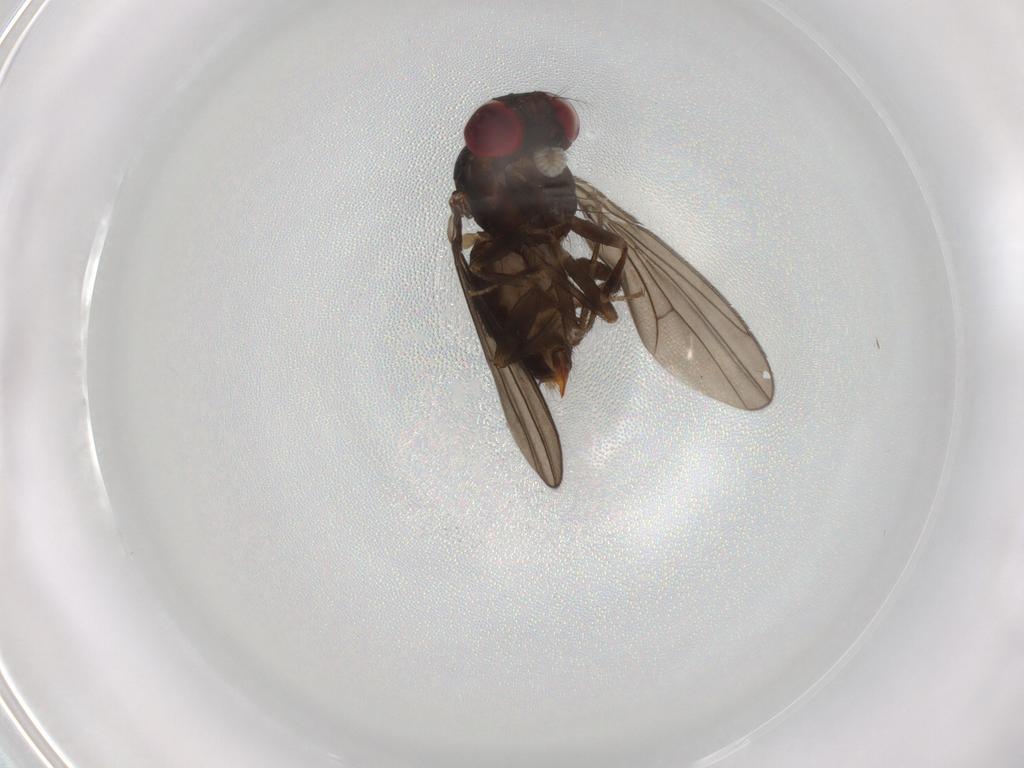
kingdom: Animalia
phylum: Arthropoda
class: Insecta
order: Diptera
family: Drosophilidae
